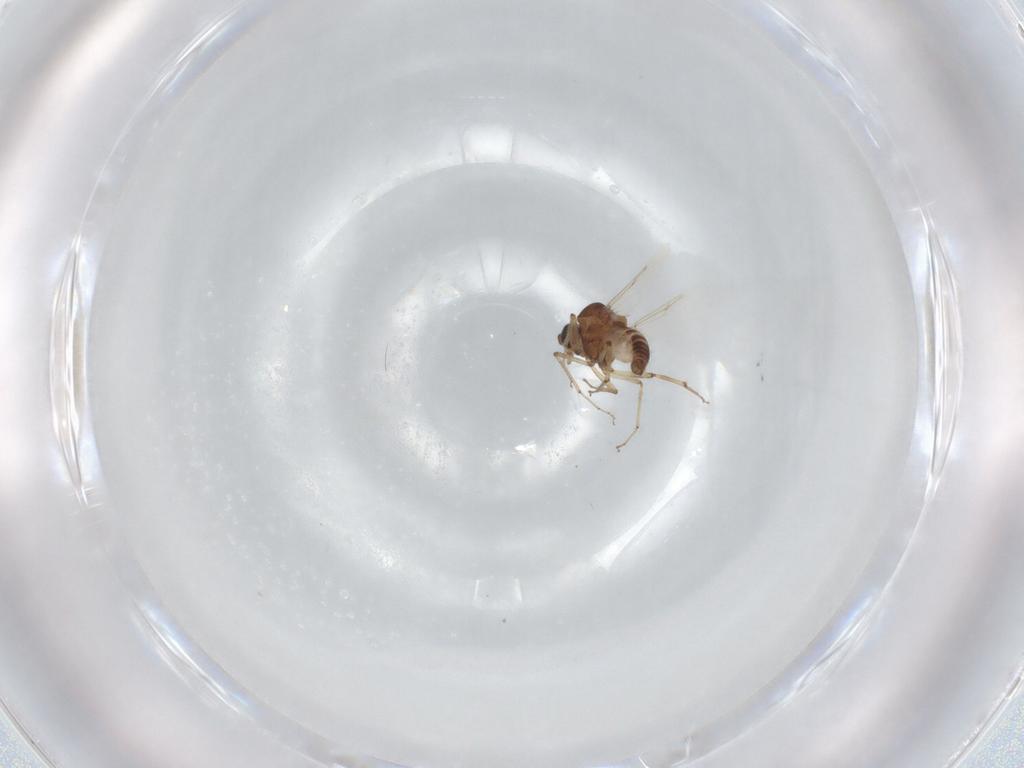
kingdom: Animalia
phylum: Arthropoda
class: Insecta
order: Diptera
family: Ceratopogonidae
